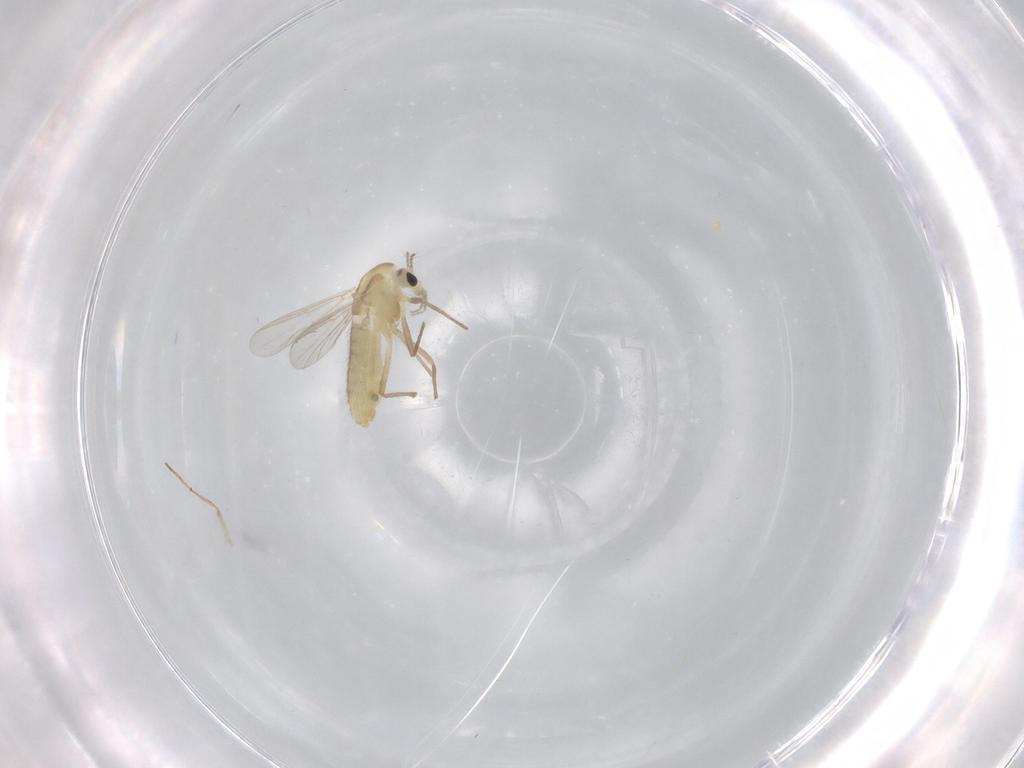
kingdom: Animalia
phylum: Arthropoda
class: Insecta
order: Diptera
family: Chironomidae
